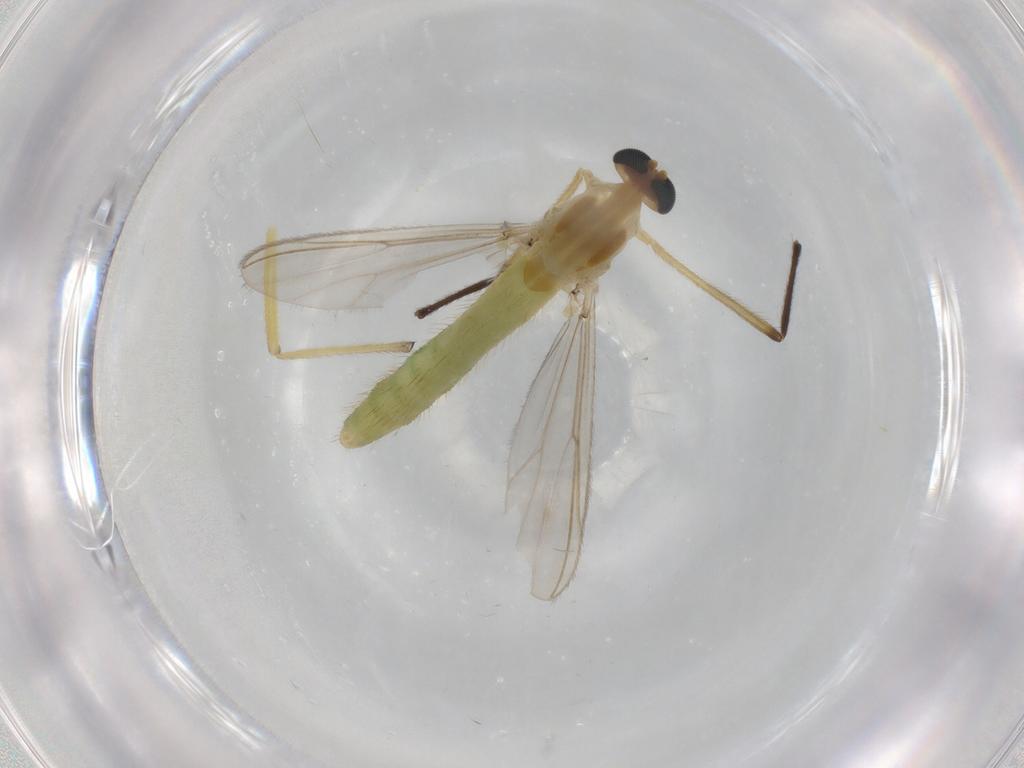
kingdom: Animalia
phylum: Arthropoda
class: Insecta
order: Diptera
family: Chironomidae
